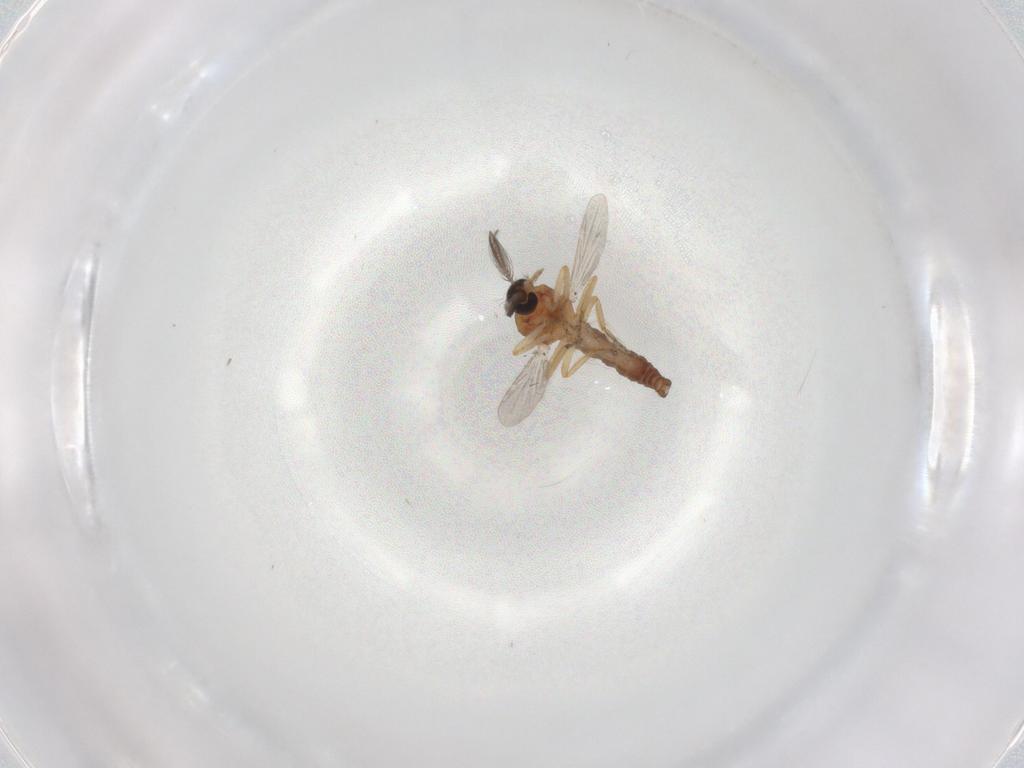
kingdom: Animalia
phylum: Arthropoda
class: Insecta
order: Diptera
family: Ceratopogonidae
